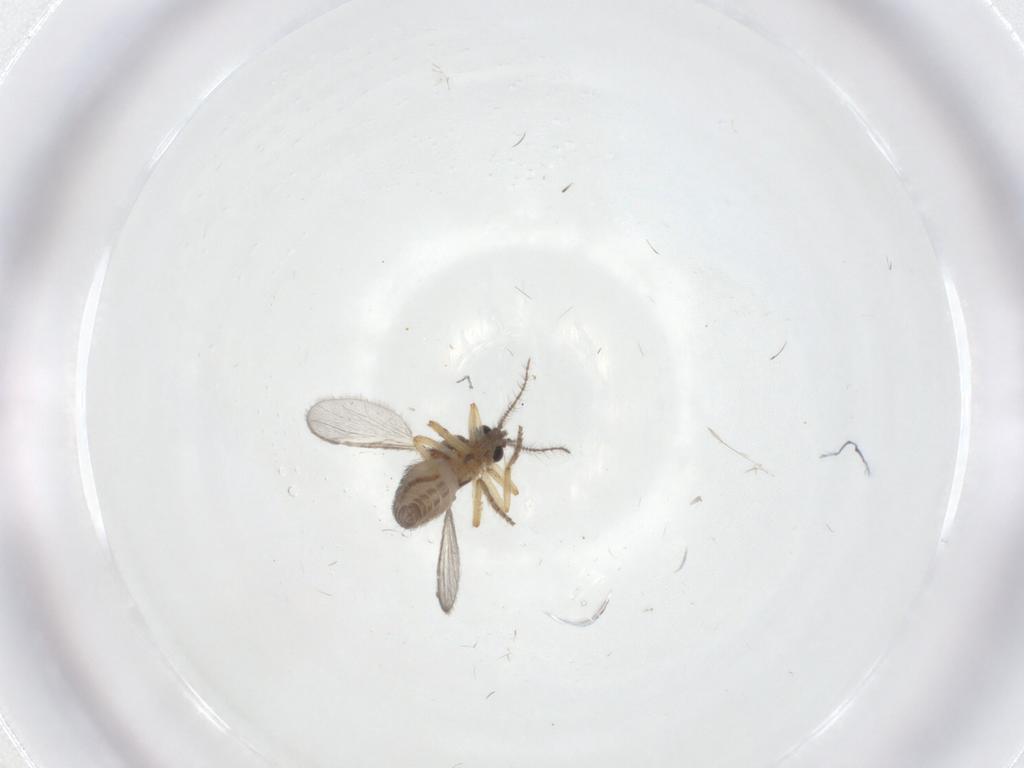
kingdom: Animalia
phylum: Arthropoda
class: Insecta
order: Diptera
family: Ceratopogonidae
